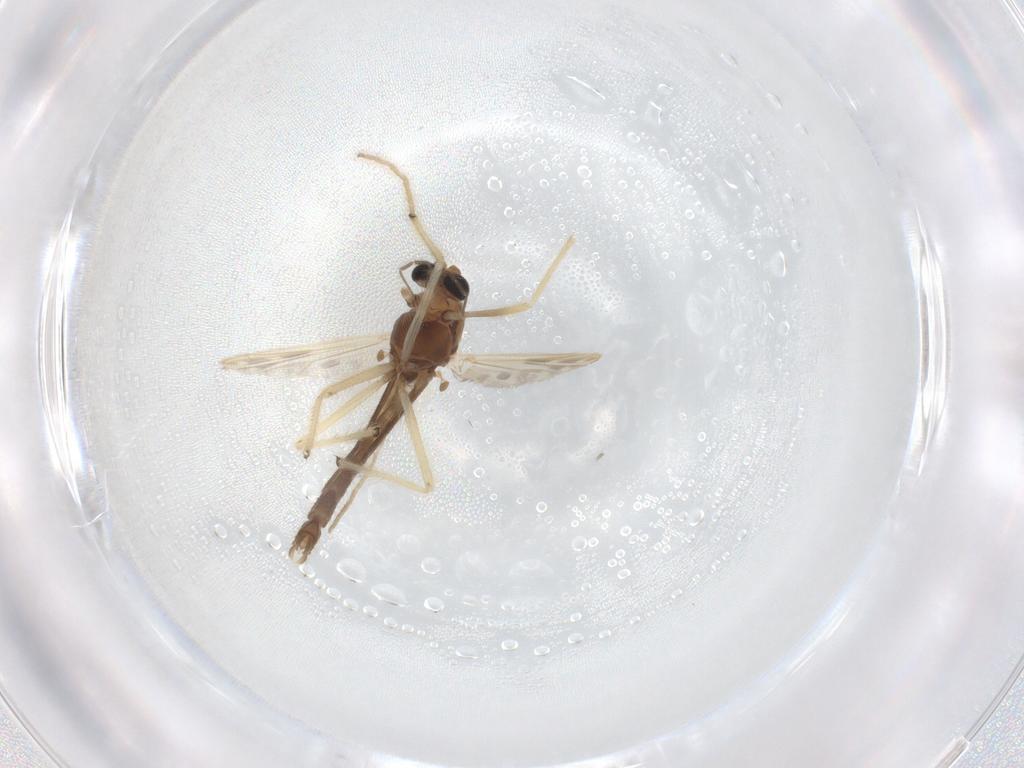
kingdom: Animalia
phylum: Arthropoda
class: Insecta
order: Diptera
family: Chironomidae
